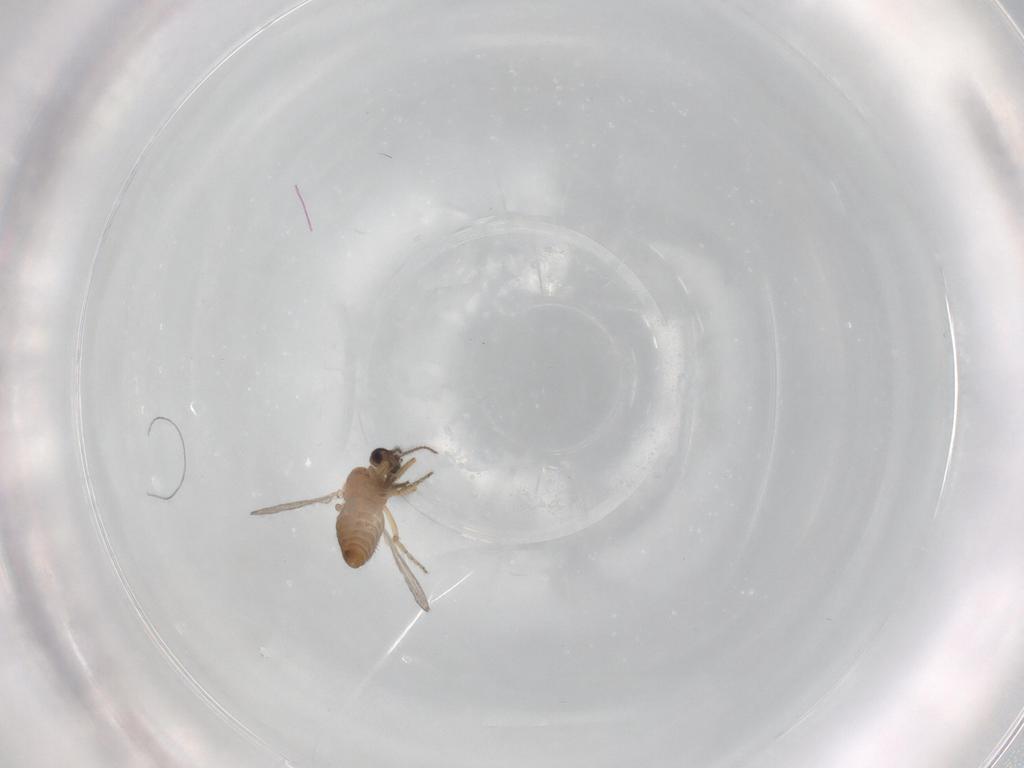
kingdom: Animalia
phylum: Arthropoda
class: Insecta
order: Diptera
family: Ceratopogonidae
